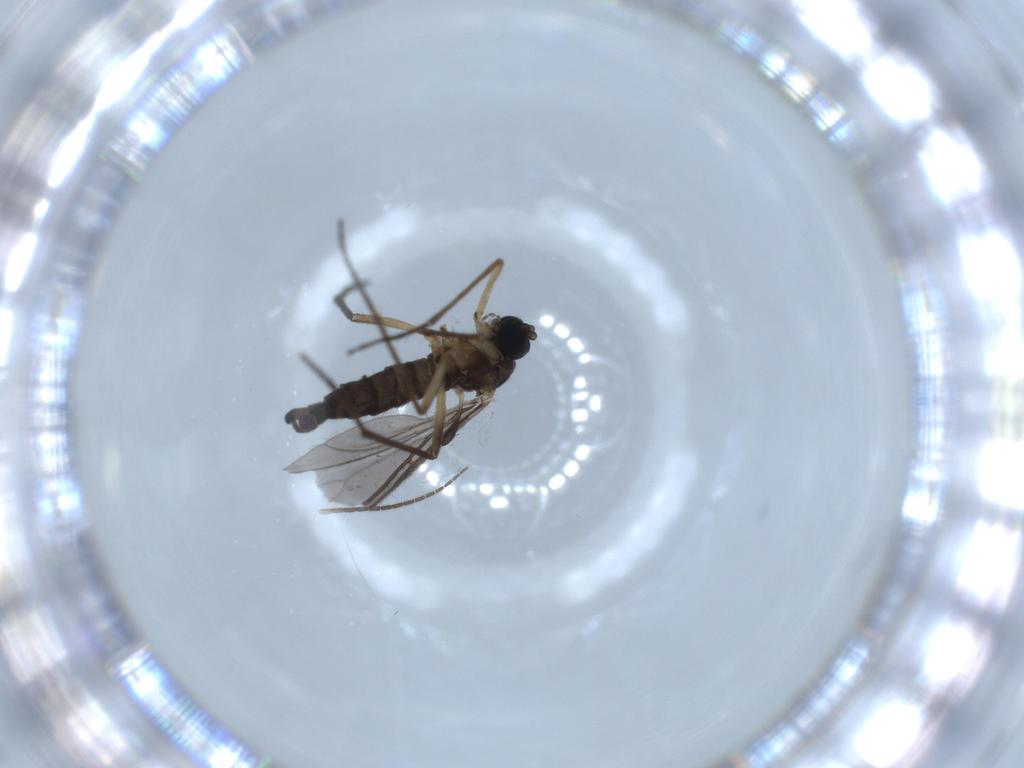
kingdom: Animalia
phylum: Arthropoda
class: Insecta
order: Diptera
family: Sciaridae
